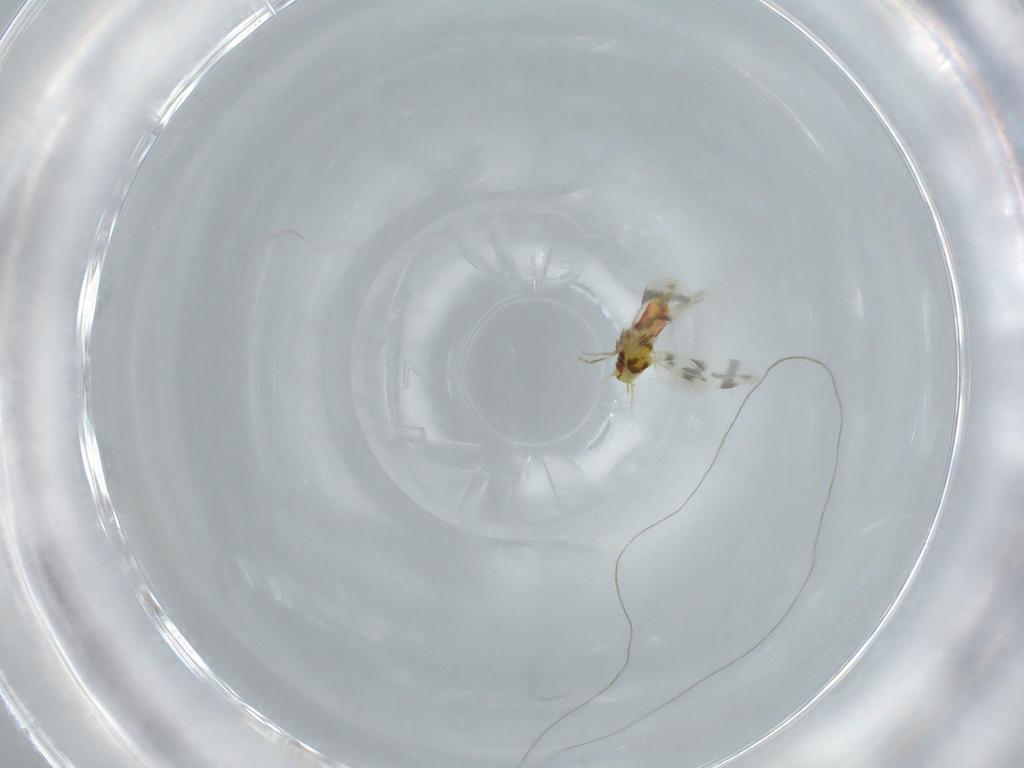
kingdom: Animalia
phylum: Arthropoda
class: Insecta
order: Hemiptera
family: Aleyrodidae
